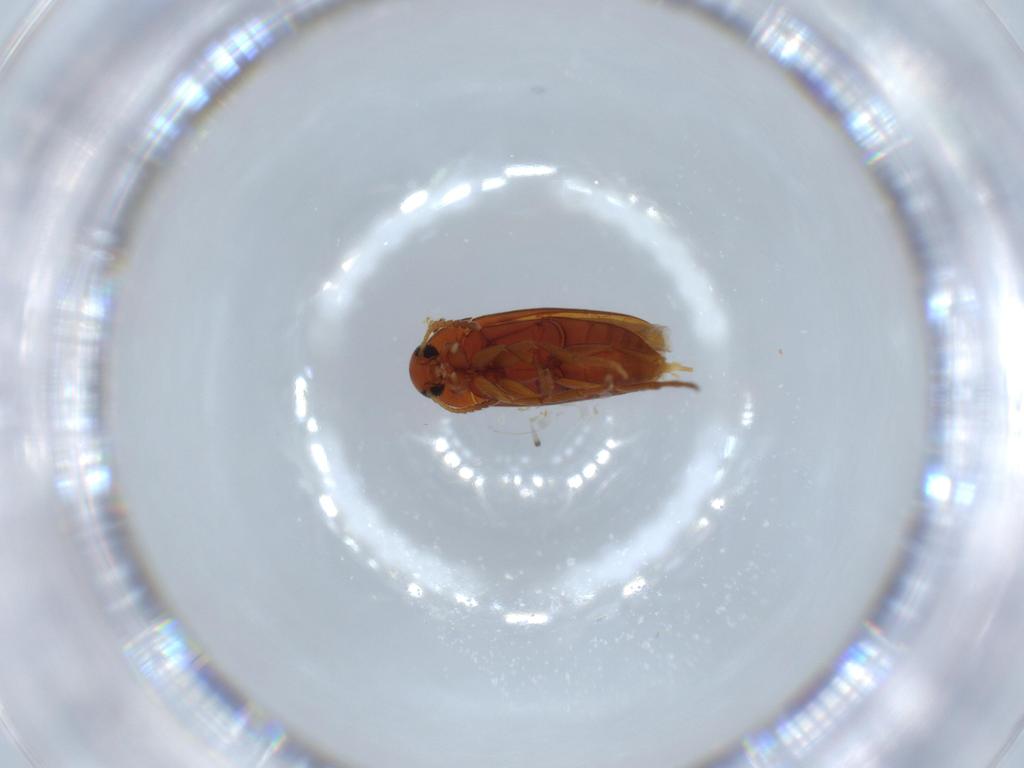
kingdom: Animalia
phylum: Arthropoda
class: Insecta
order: Coleoptera
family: Scraptiidae
